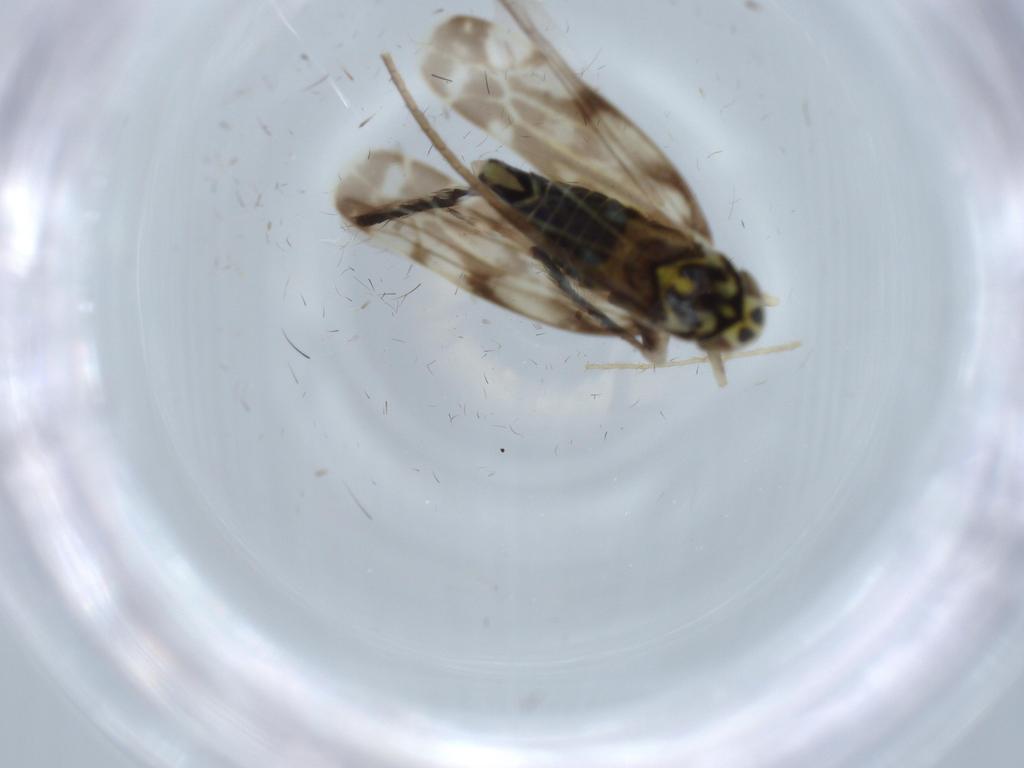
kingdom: Animalia
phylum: Arthropoda
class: Insecta
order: Hemiptera
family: Cicadellidae
